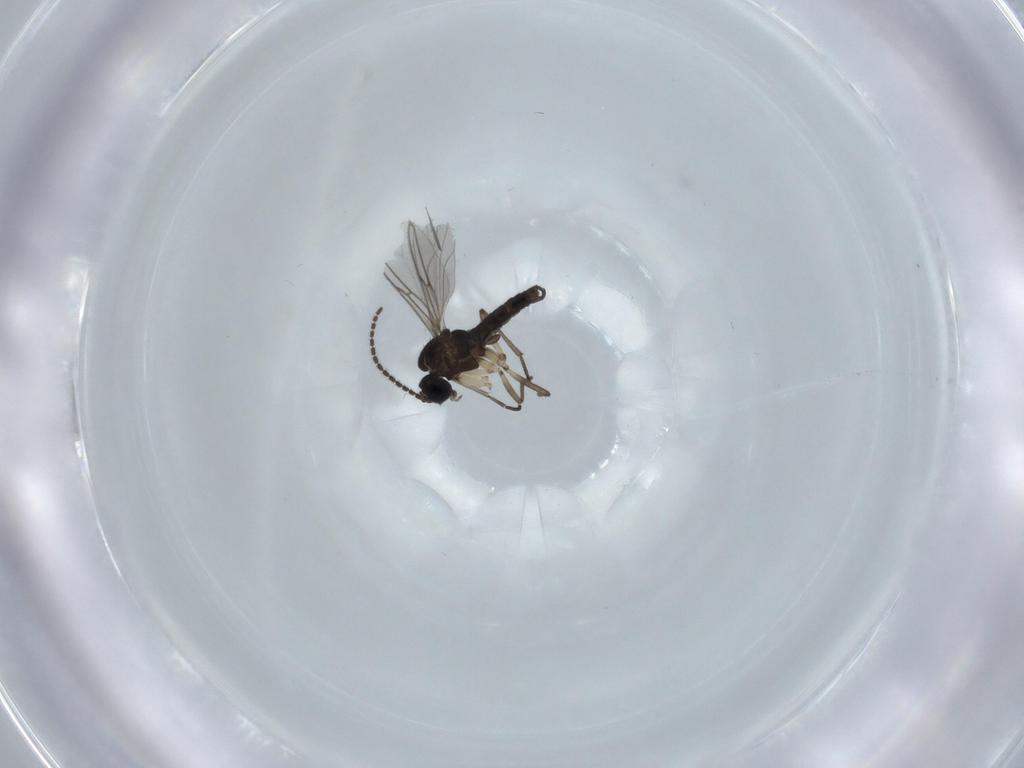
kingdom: Animalia
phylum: Arthropoda
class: Insecta
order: Diptera
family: Sciaridae
